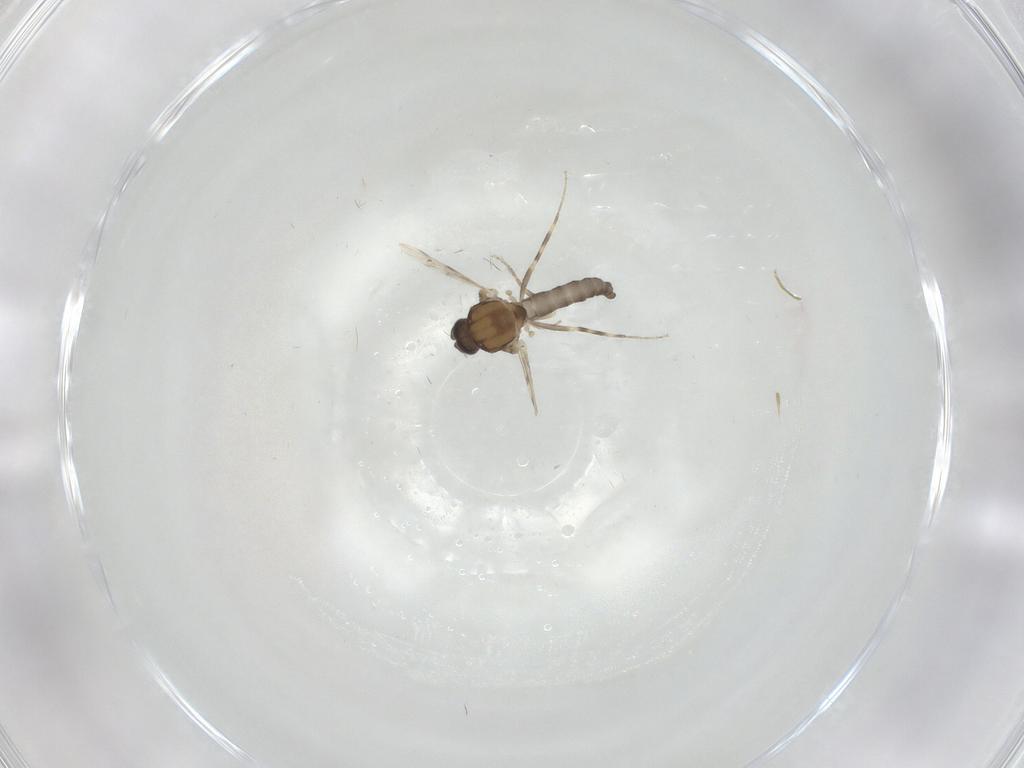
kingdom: Animalia
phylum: Arthropoda
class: Insecta
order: Diptera
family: Ceratopogonidae
